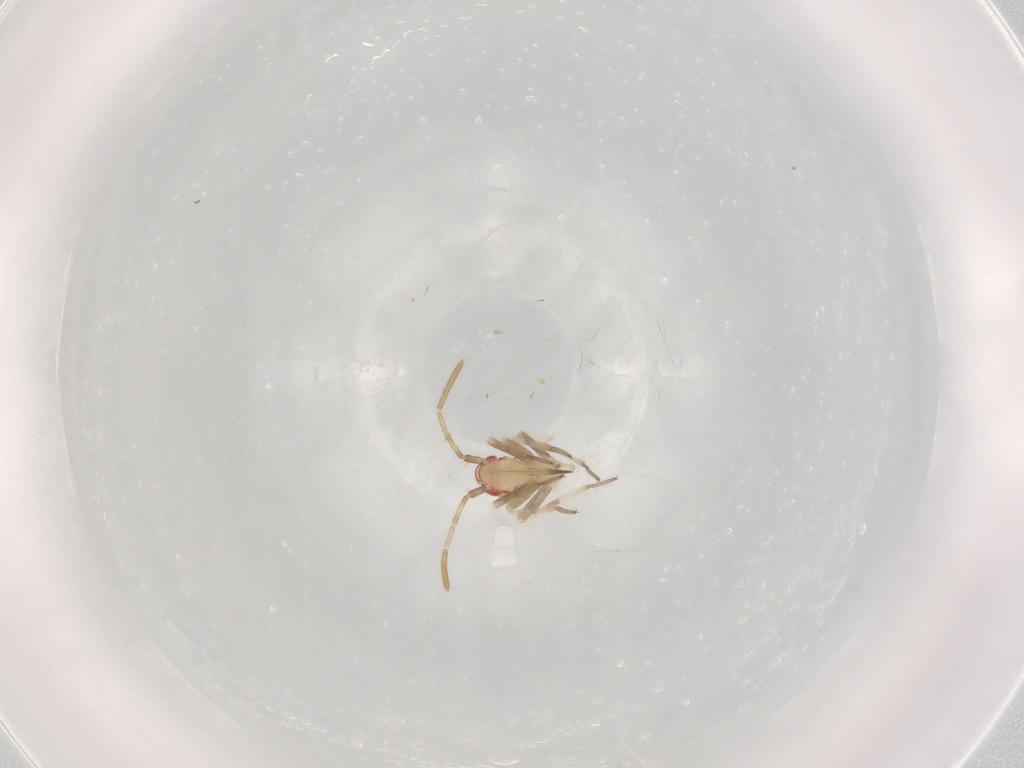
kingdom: Animalia
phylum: Arthropoda
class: Insecta
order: Hemiptera
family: Miridae
